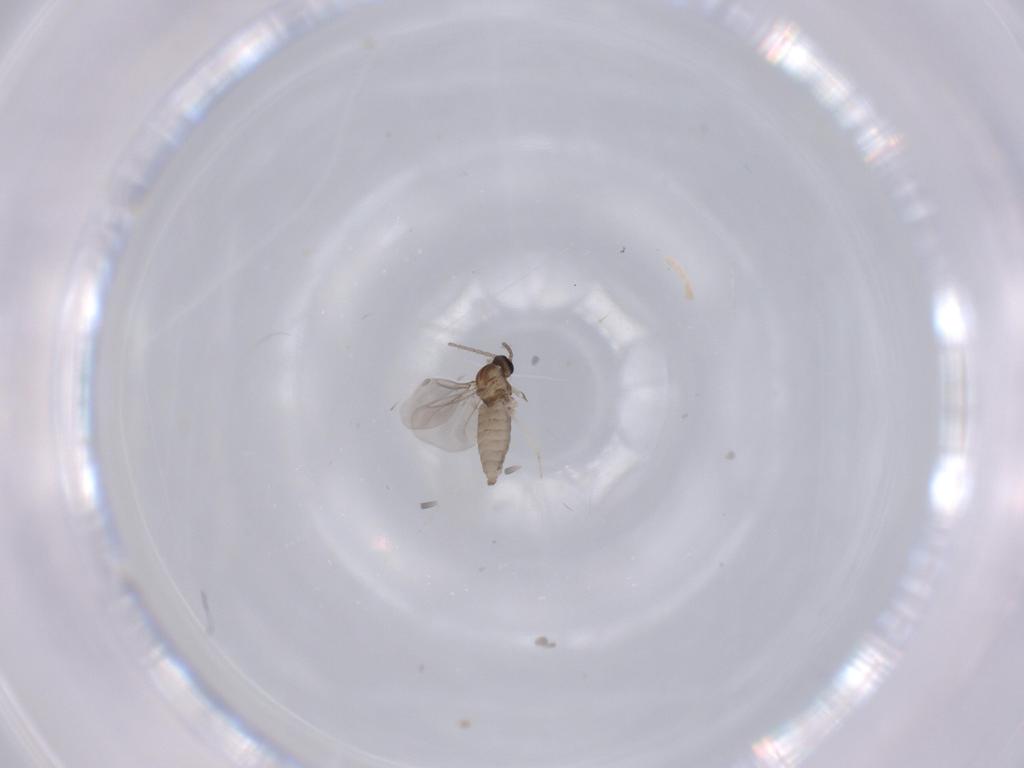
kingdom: Animalia
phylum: Arthropoda
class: Insecta
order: Diptera
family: Cecidomyiidae
